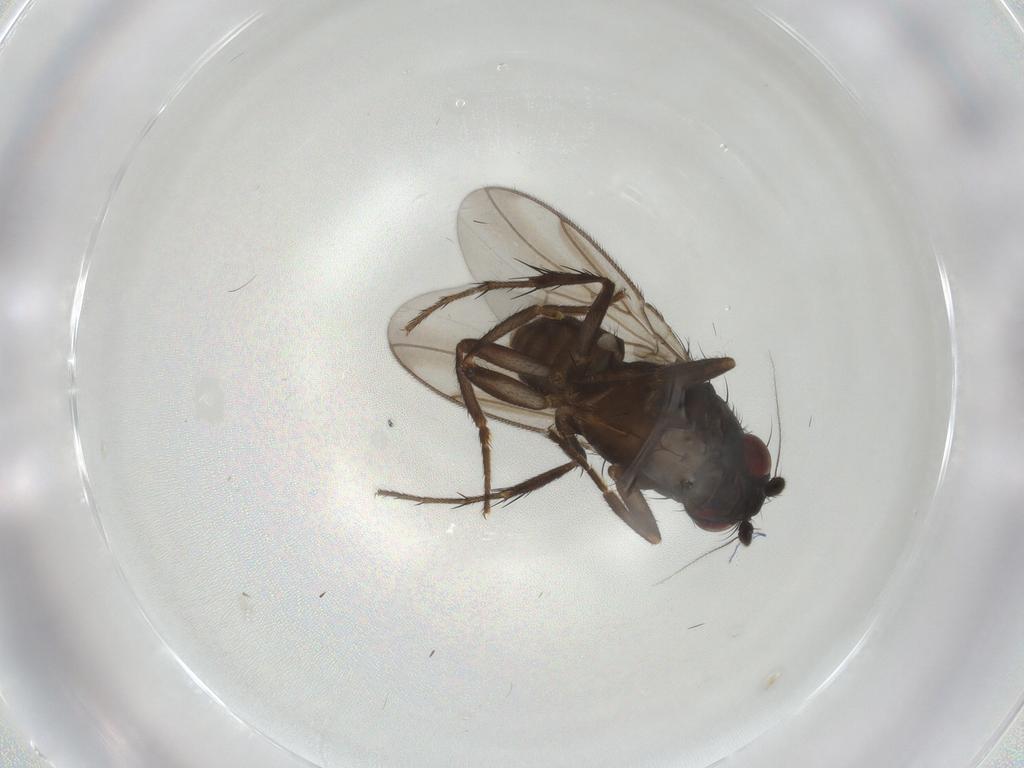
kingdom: Animalia
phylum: Arthropoda
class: Insecta
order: Diptera
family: Sphaeroceridae
